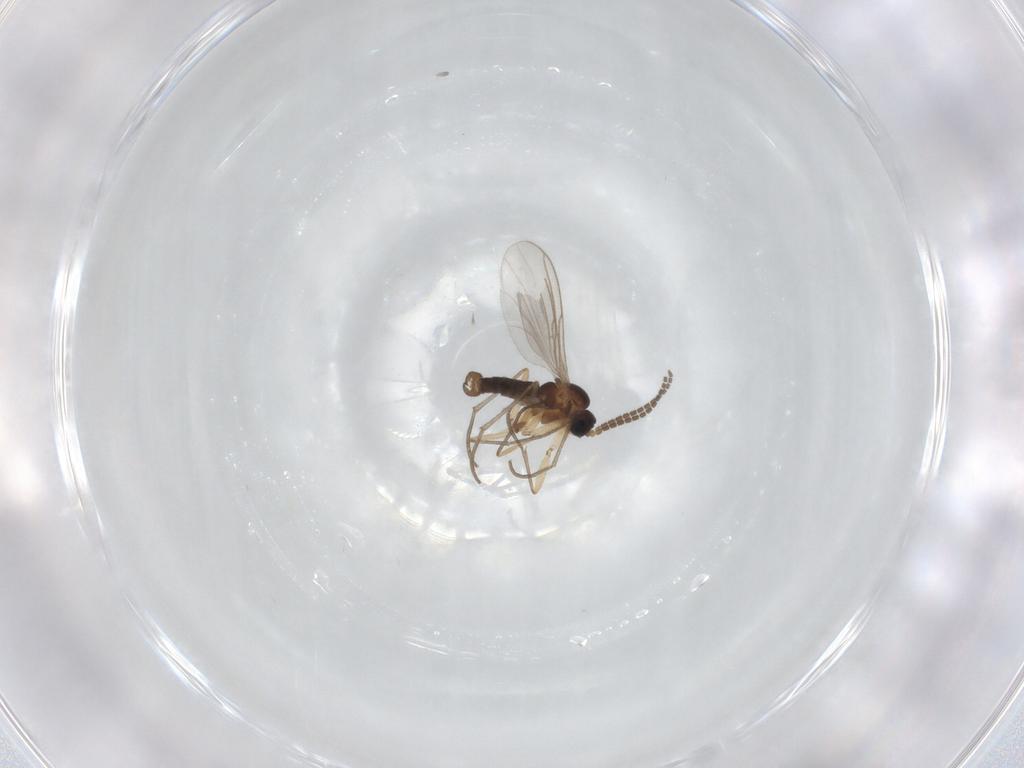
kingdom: Animalia
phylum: Arthropoda
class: Insecta
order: Diptera
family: Sciaridae
